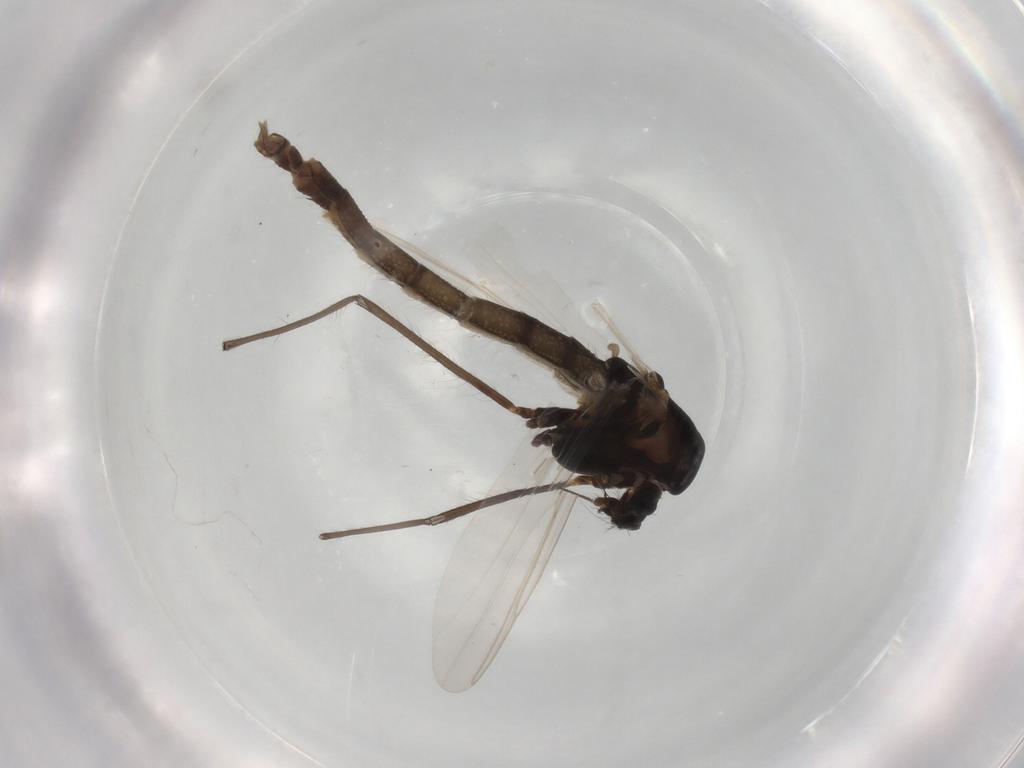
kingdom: Animalia
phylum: Arthropoda
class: Insecta
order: Diptera
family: Chironomidae
